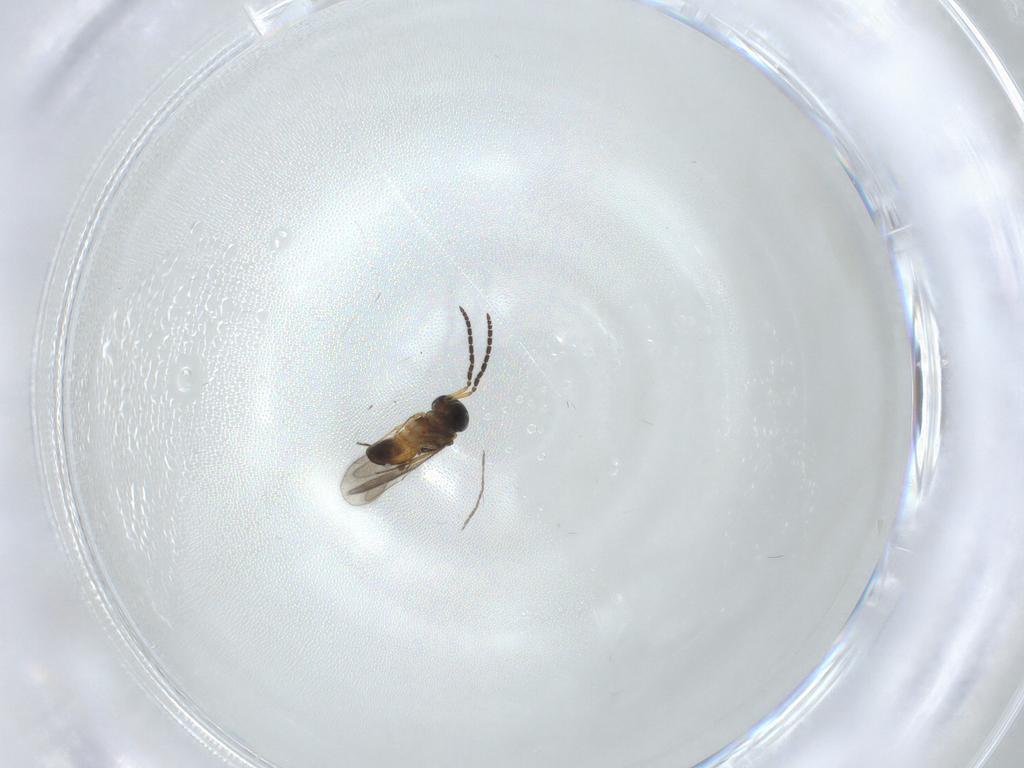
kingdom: Animalia
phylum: Arthropoda
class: Insecta
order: Hymenoptera
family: Scelionidae
